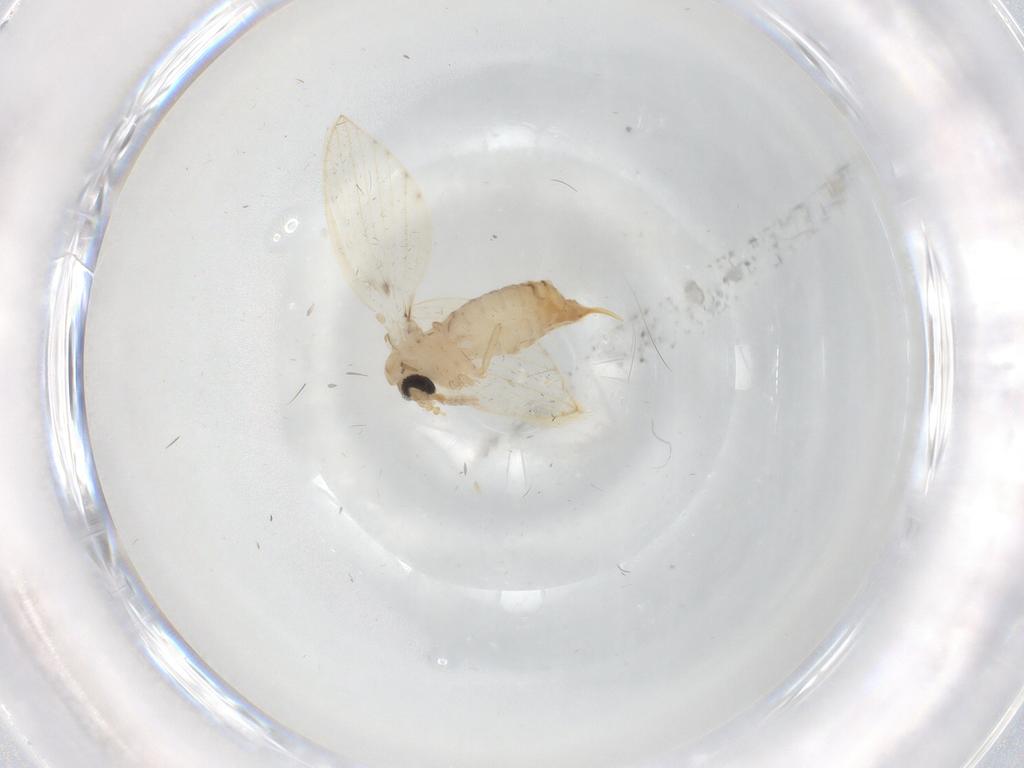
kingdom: Animalia
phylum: Arthropoda
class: Insecta
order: Diptera
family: Psychodidae
